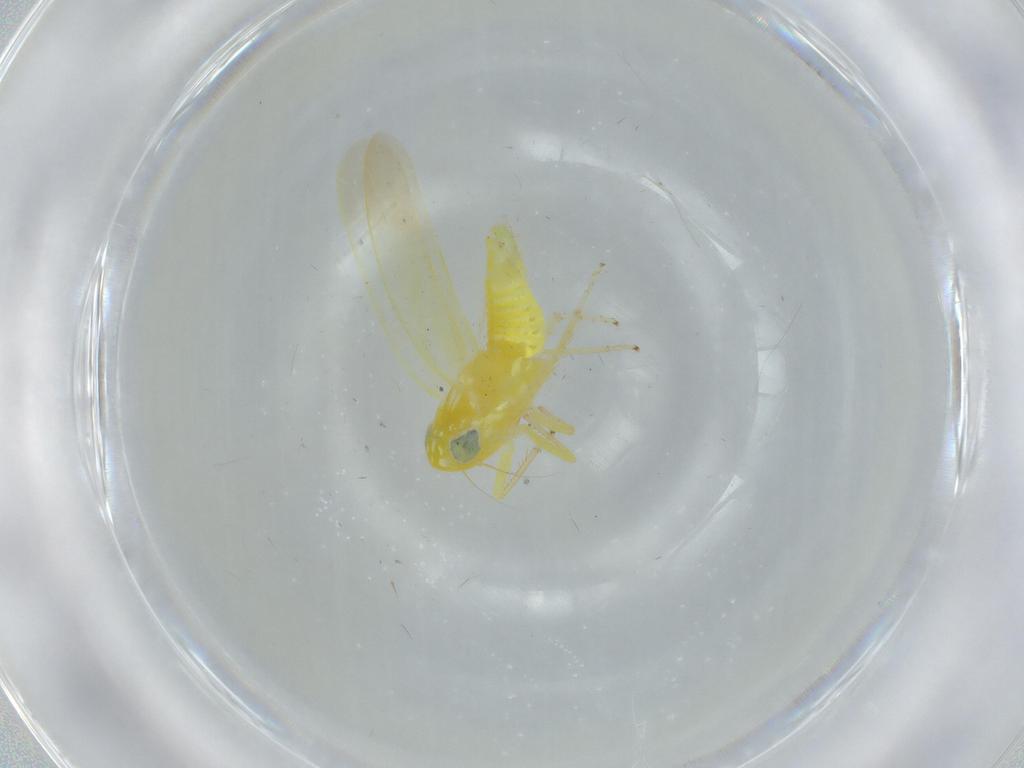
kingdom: Animalia
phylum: Arthropoda
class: Insecta
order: Hemiptera
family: Cicadellidae
